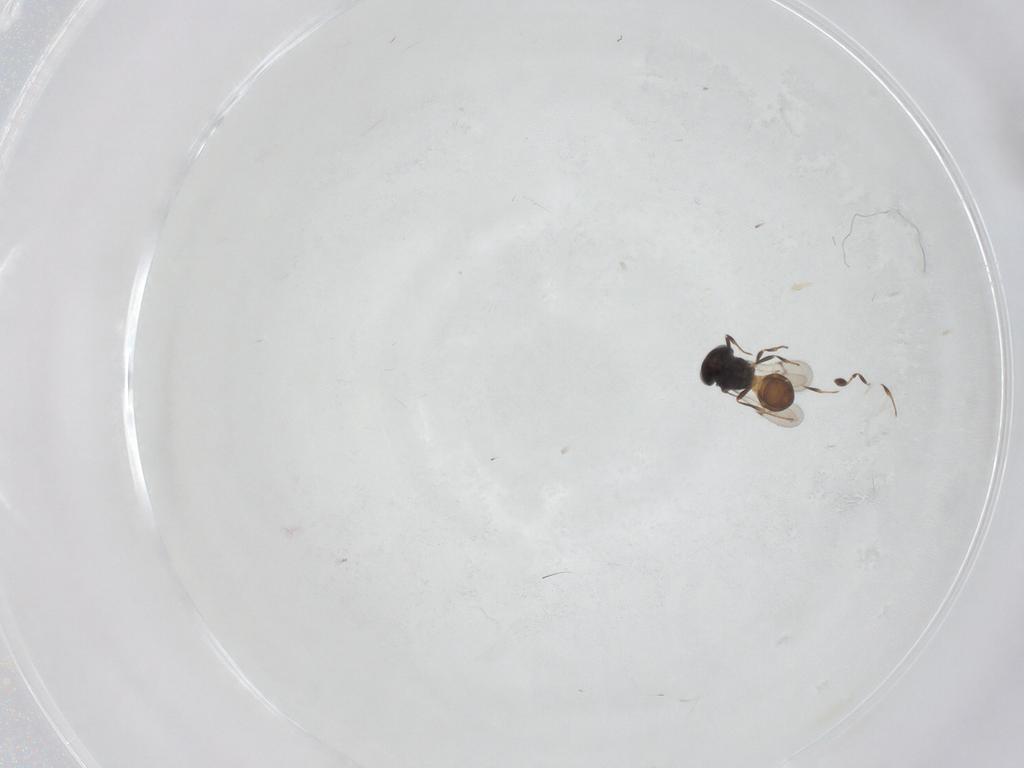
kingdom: Animalia
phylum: Arthropoda
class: Arachnida
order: Araneae
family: Pholcidae
